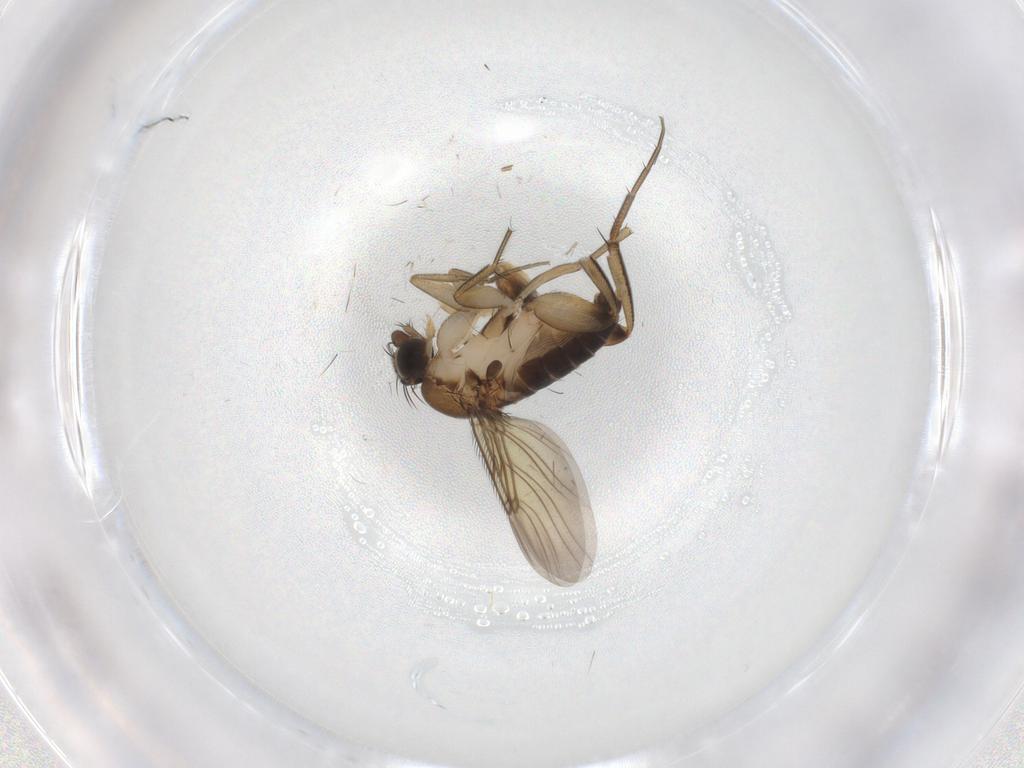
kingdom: Animalia
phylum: Arthropoda
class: Insecta
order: Diptera
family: Phoridae
